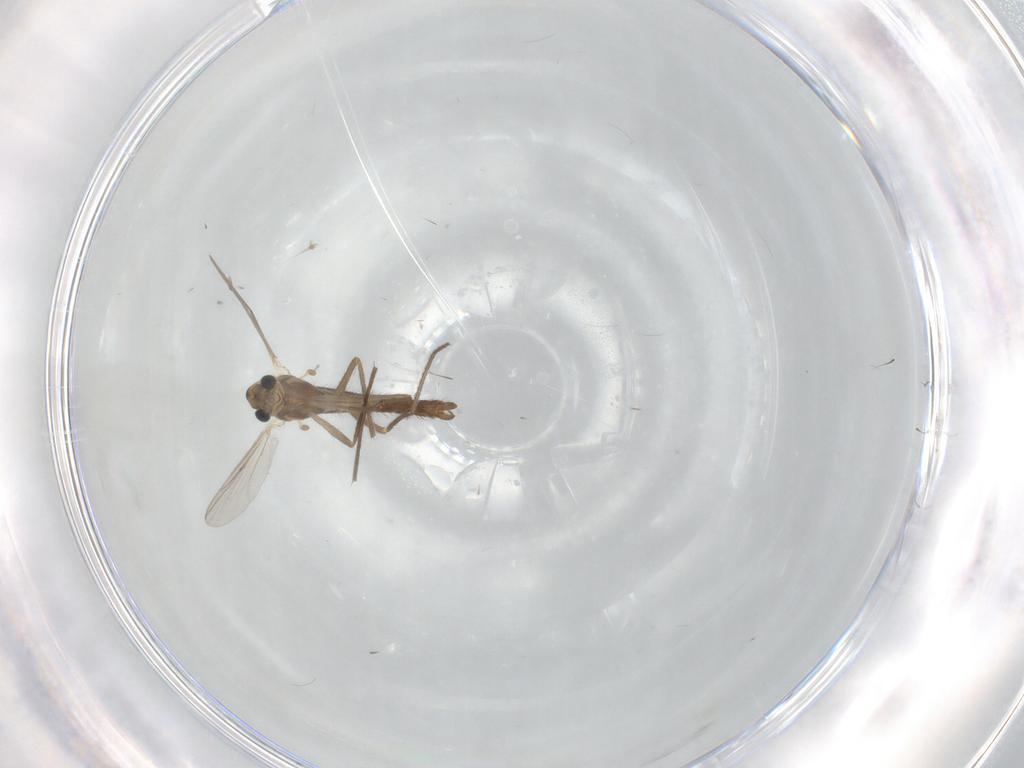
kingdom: Animalia
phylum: Arthropoda
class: Insecta
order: Diptera
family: Chironomidae
